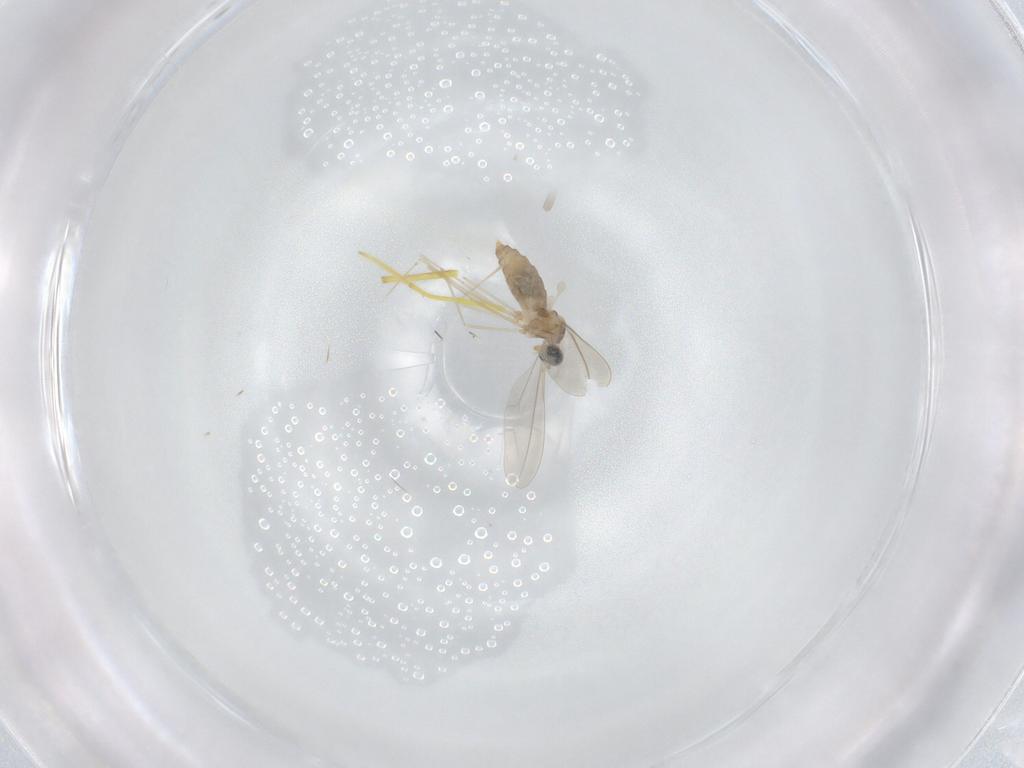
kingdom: Animalia
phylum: Arthropoda
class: Insecta
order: Diptera
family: Cecidomyiidae
